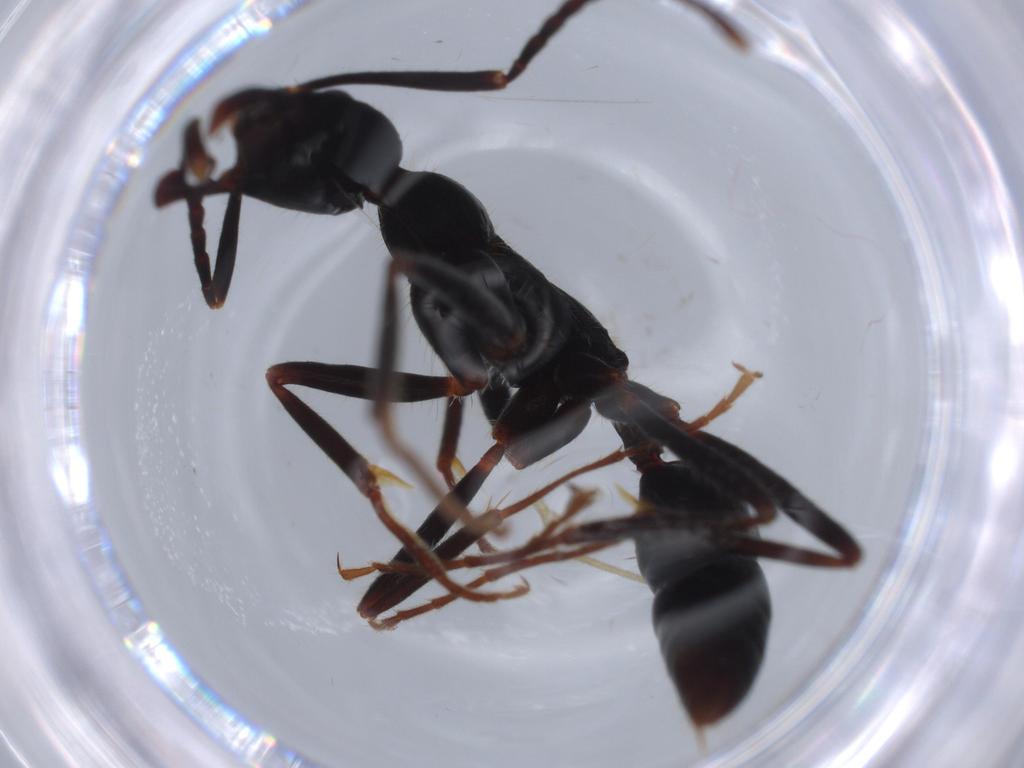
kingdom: Animalia
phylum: Arthropoda
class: Insecta
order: Hymenoptera
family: Formicidae
